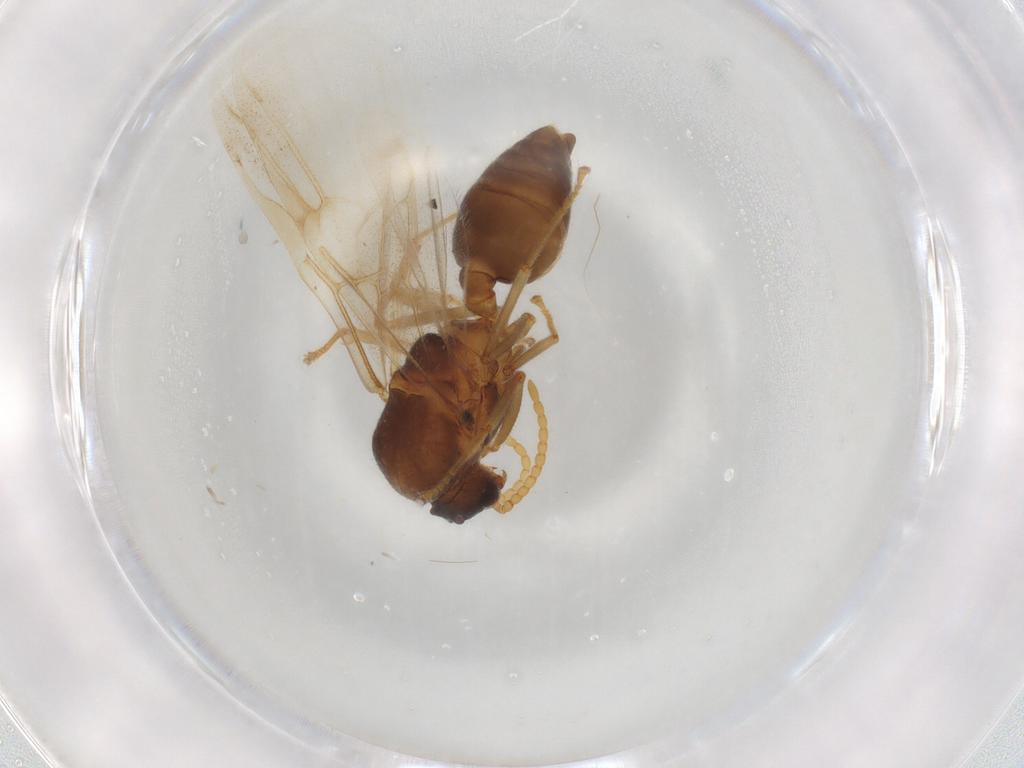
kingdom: Animalia
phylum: Arthropoda
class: Insecta
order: Hymenoptera
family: Formicidae
